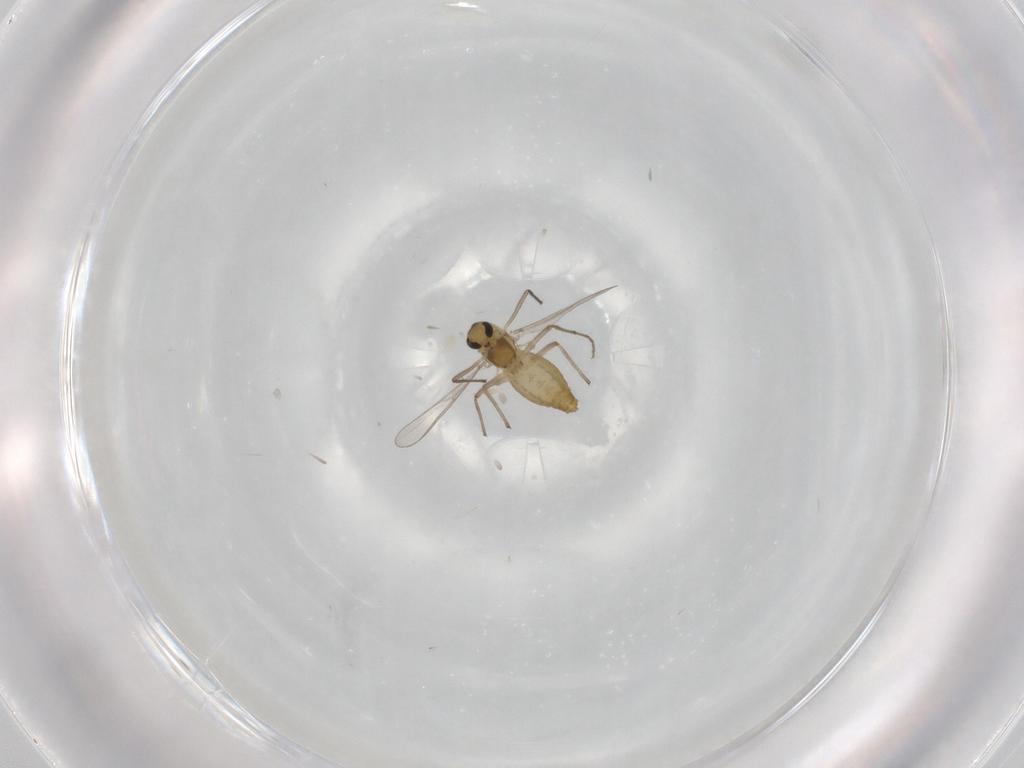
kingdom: Animalia
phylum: Arthropoda
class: Insecta
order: Diptera
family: Chironomidae
